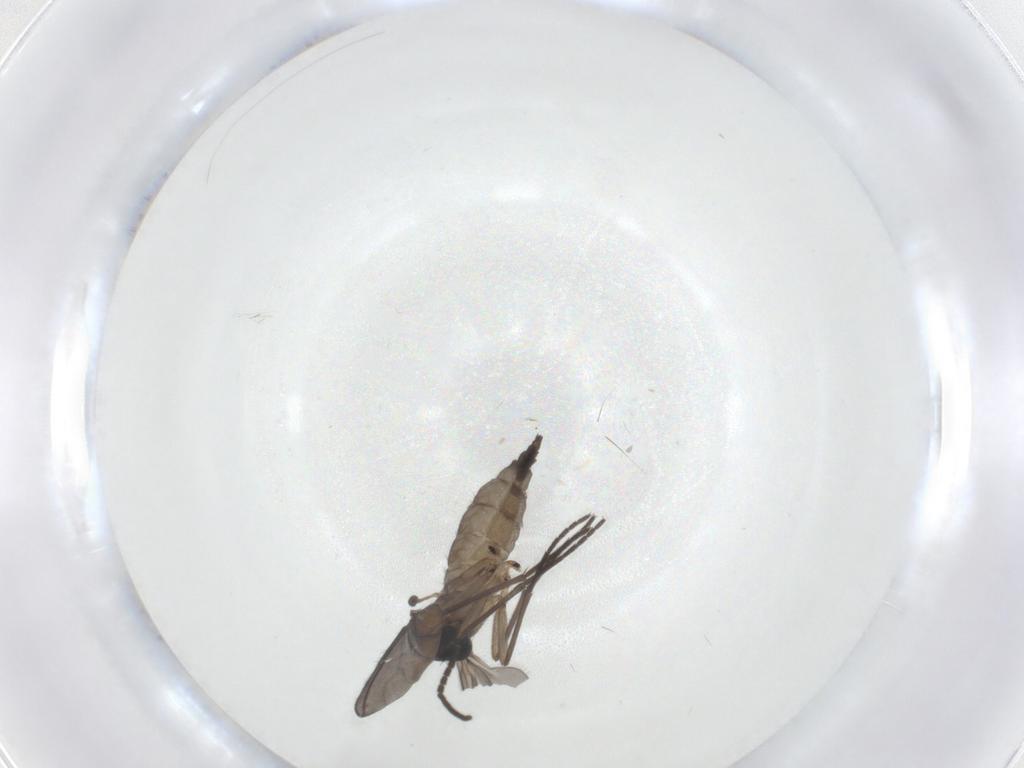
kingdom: Animalia
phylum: Arthropoda
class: Insecta
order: Diptera
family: Sciaridae
